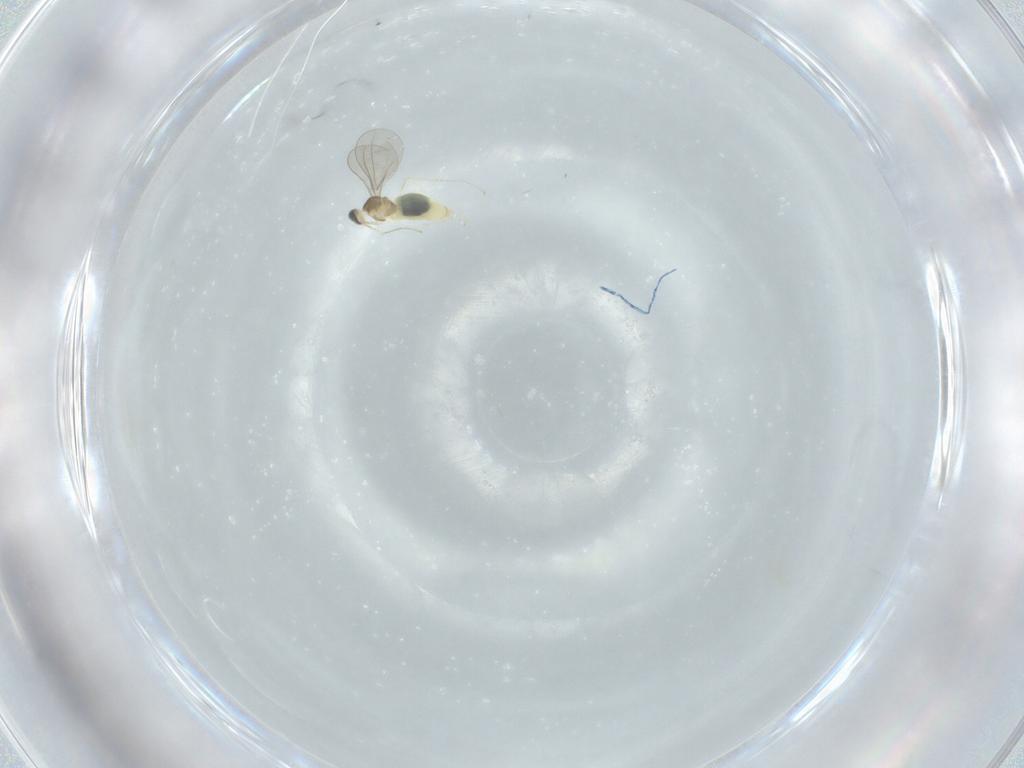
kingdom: Animalia
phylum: Arthropoda
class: Insecta
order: Diptera
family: Cecidomyiidae
